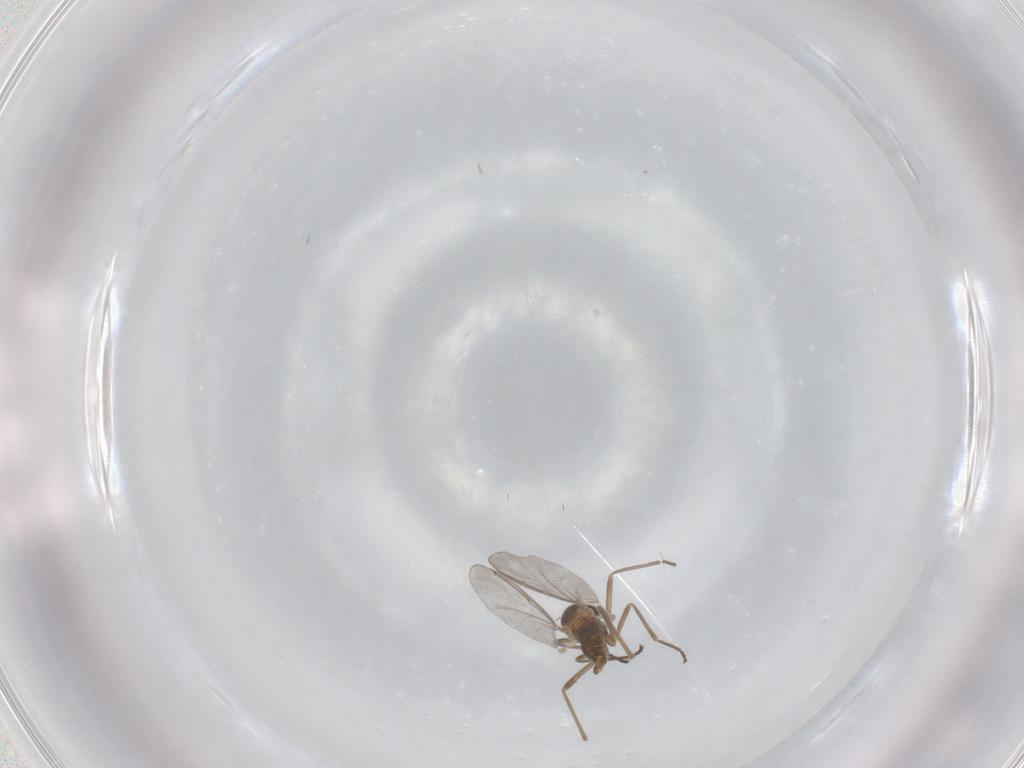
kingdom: Animalia
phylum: Arthropoda
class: Insecta
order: Diptera
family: Cecidomyiidae
